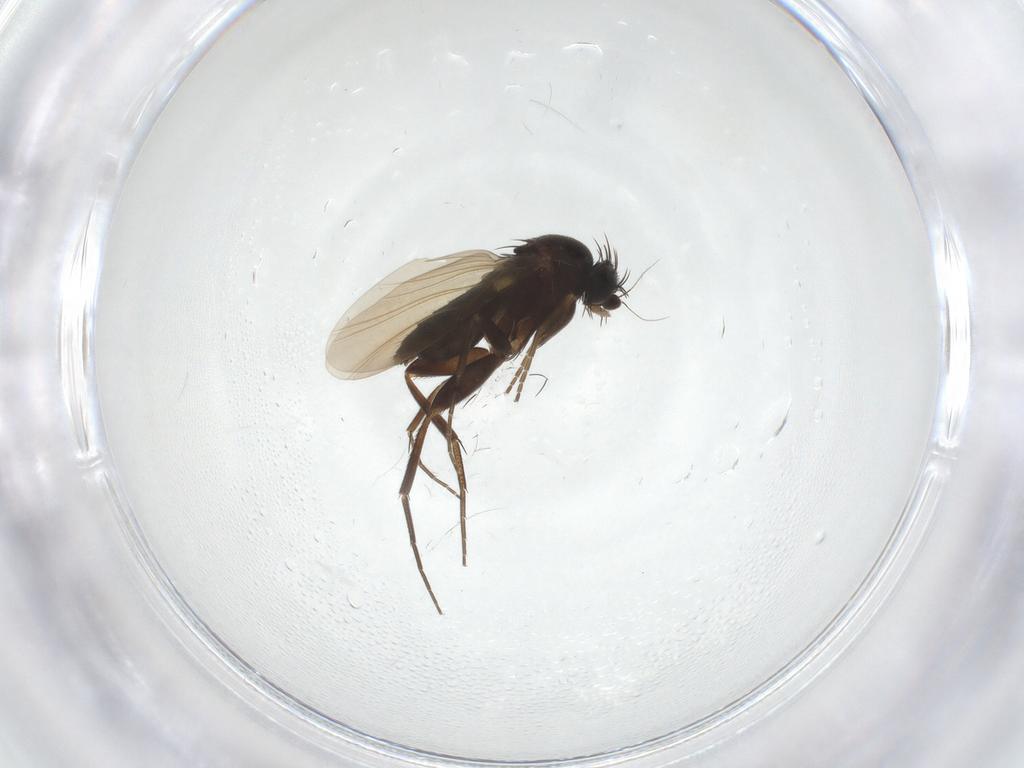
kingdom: Animalia
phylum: Arthropoda
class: Insecta
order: Diptera
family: Phoridae
